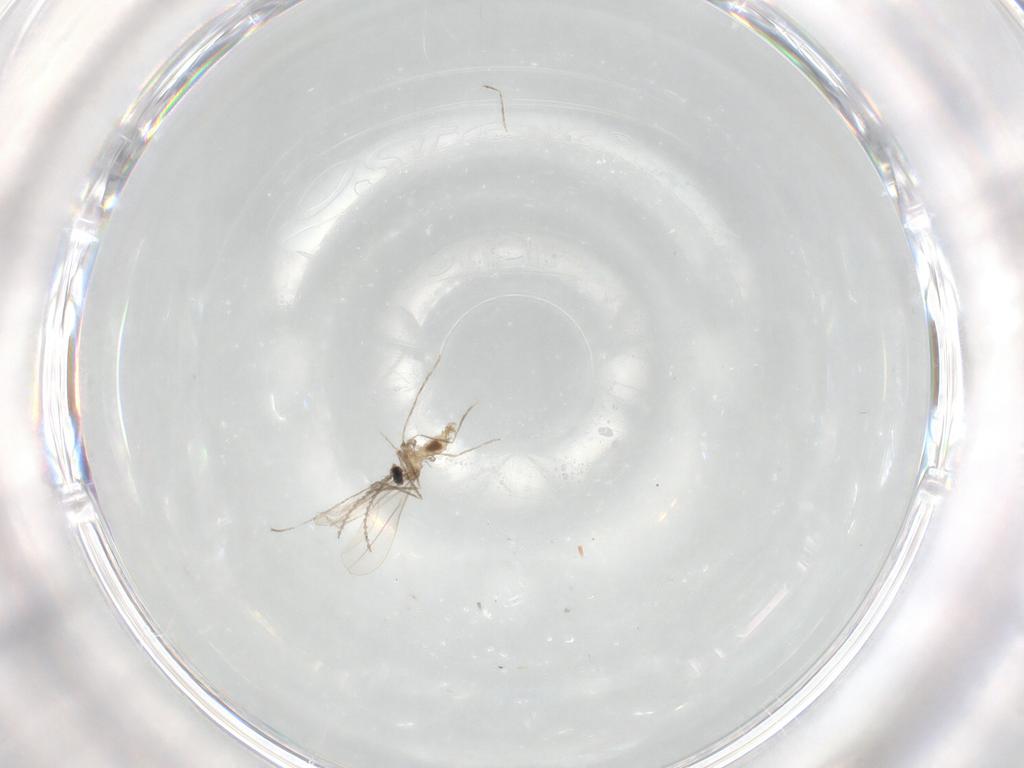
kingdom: Animalia
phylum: Arthropoda
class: Insecta
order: Diptera
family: Cecidomyiidae
